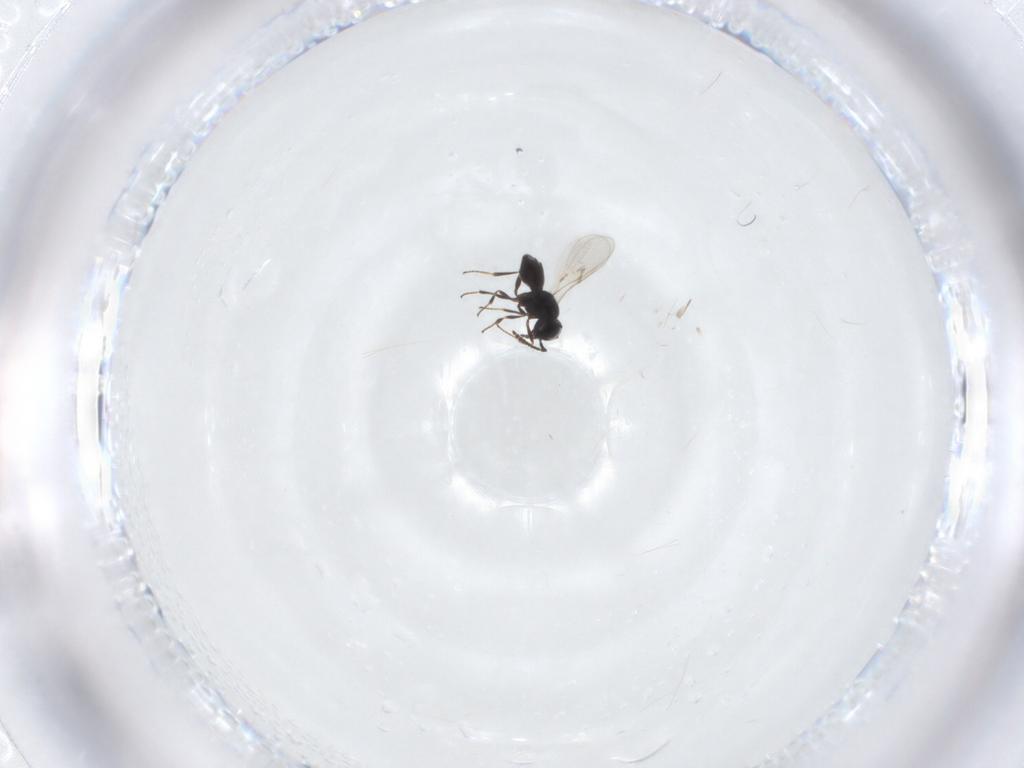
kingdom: Animalia
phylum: Arthropoda
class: Insecta
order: Hymenoptera
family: Scelionidae
